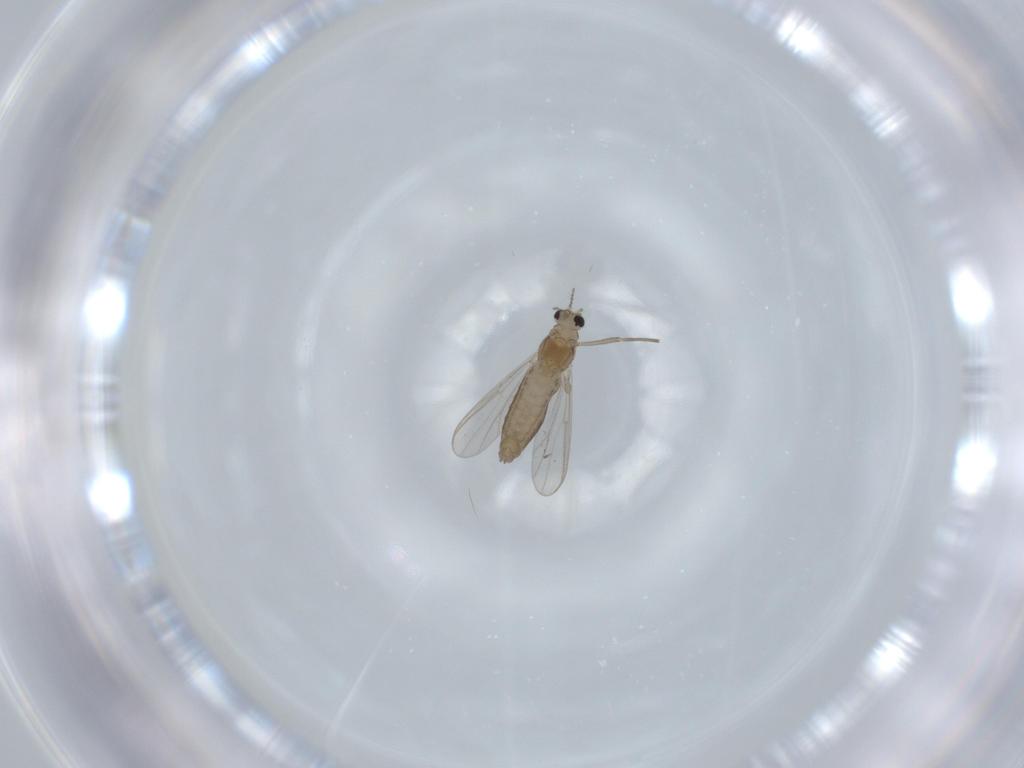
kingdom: Animalia
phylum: Arthropoda
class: Insecta
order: Diptera
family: Chironomidae
